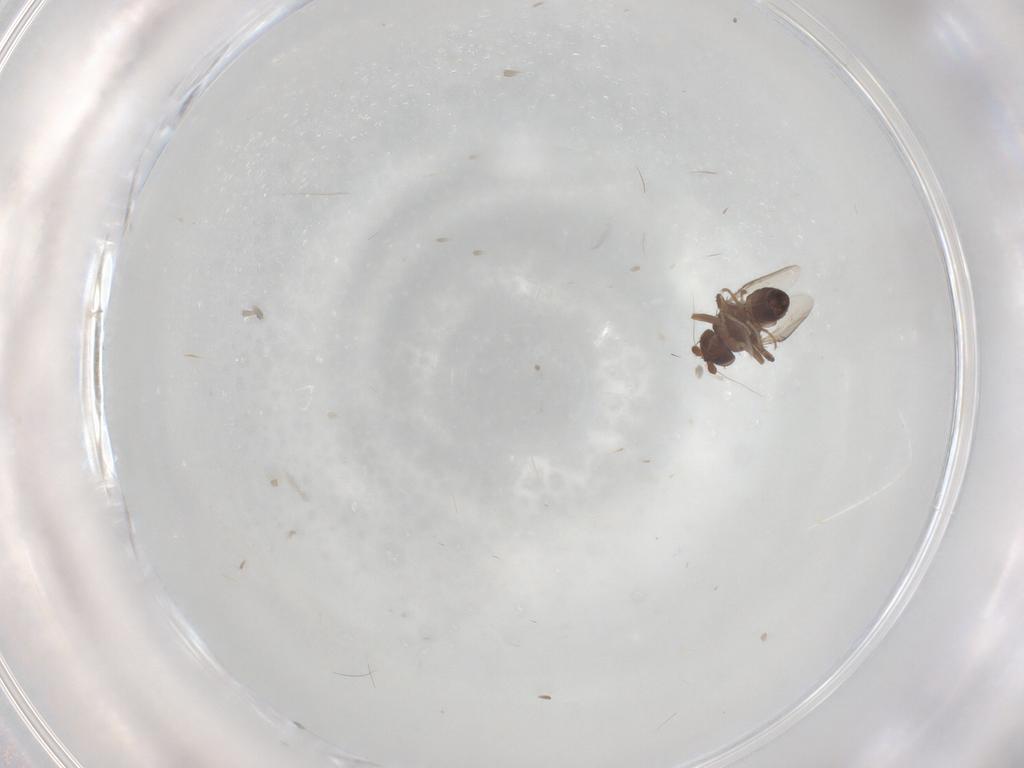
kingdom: Animalia
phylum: Arthropoda
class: Insecta
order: Diptera
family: Sphaeroceridae
